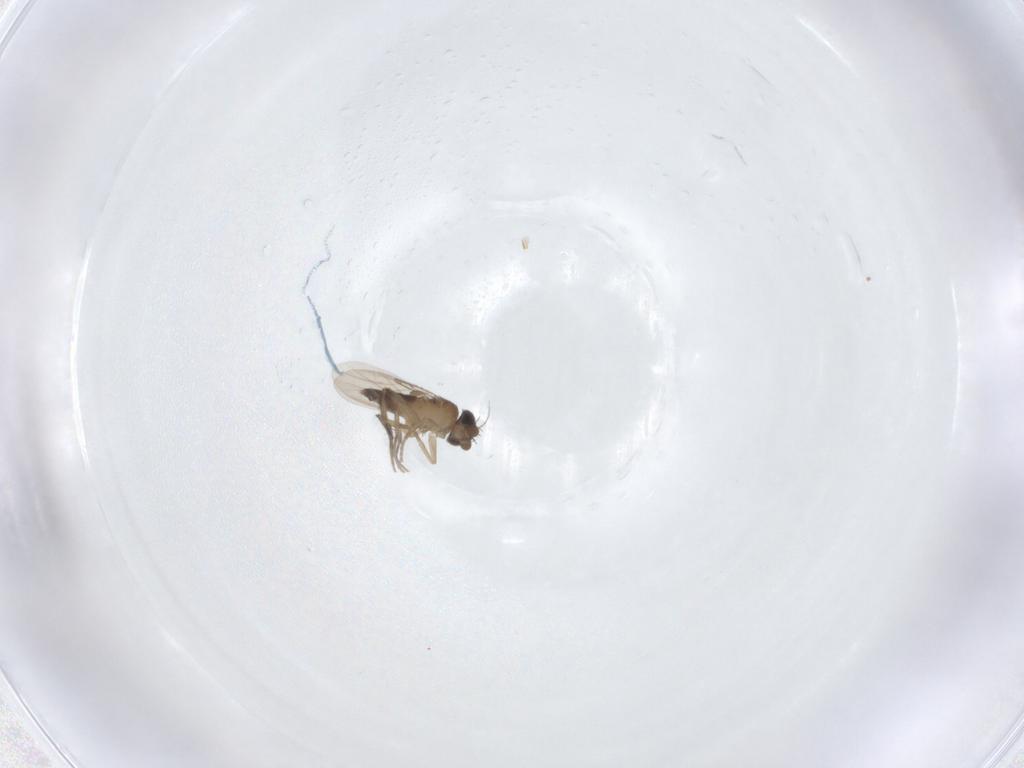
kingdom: Animalia
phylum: Arthropoda
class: Insecta
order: Diptera
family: Phoridae
